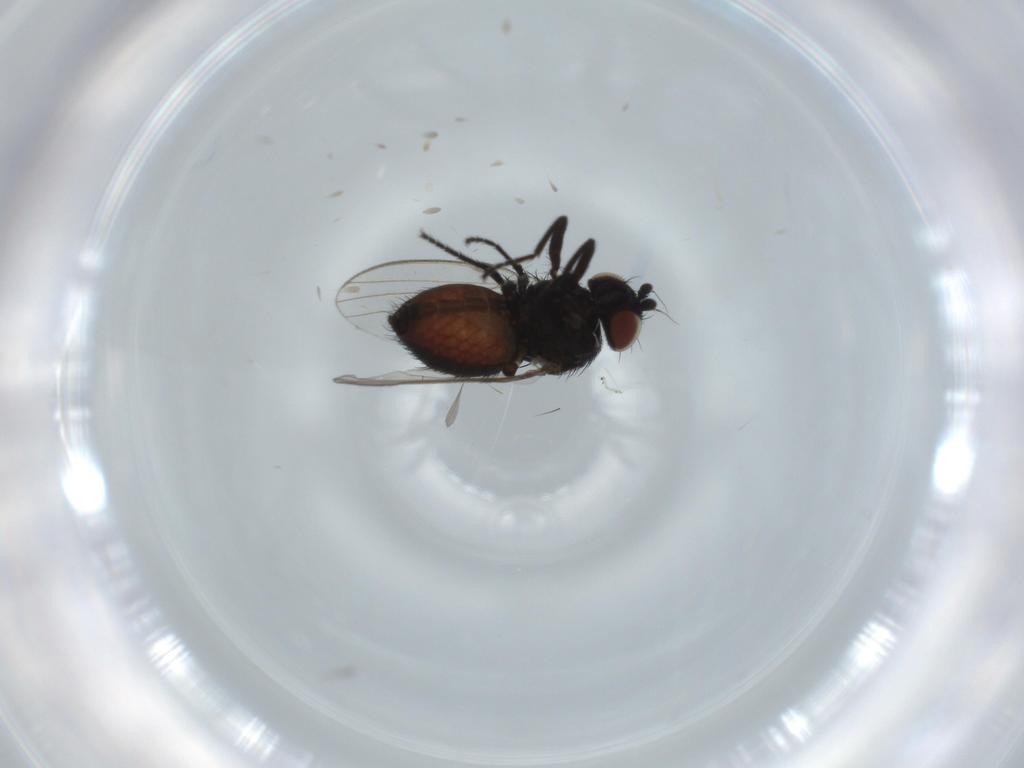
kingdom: Animalia
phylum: Arthropoda
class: Insecta
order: Diptera
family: Milichiidae
